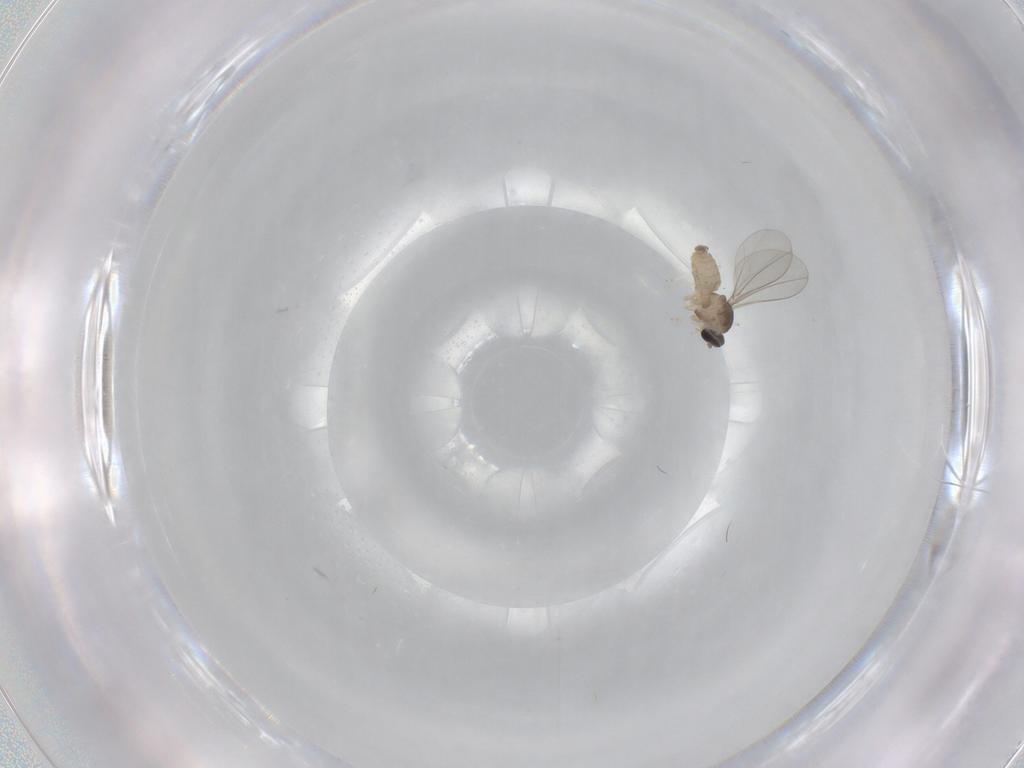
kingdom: Animalia
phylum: Arthropoda
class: Insecta
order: Diptera
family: Cecidomyiidae
